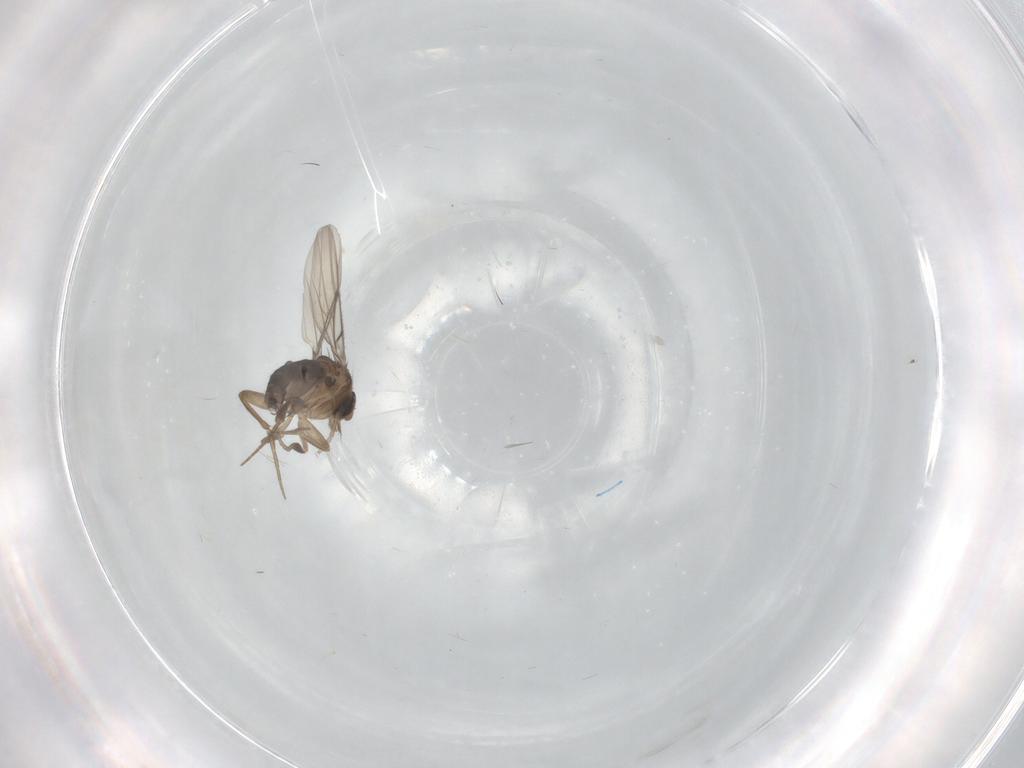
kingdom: Animalia
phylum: Arthropoda
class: Insecta
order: Diptera
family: Phoridae
